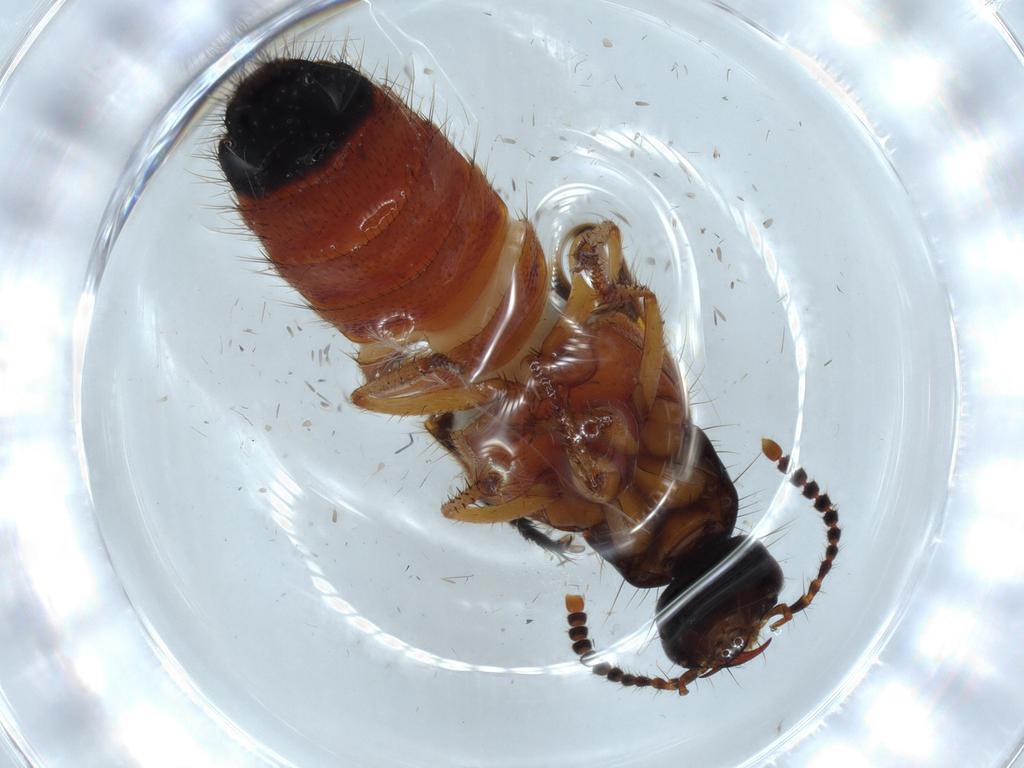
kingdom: Animalia
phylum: Arthropoda
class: Insecta
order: Coleoptera
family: Staphylinidae
